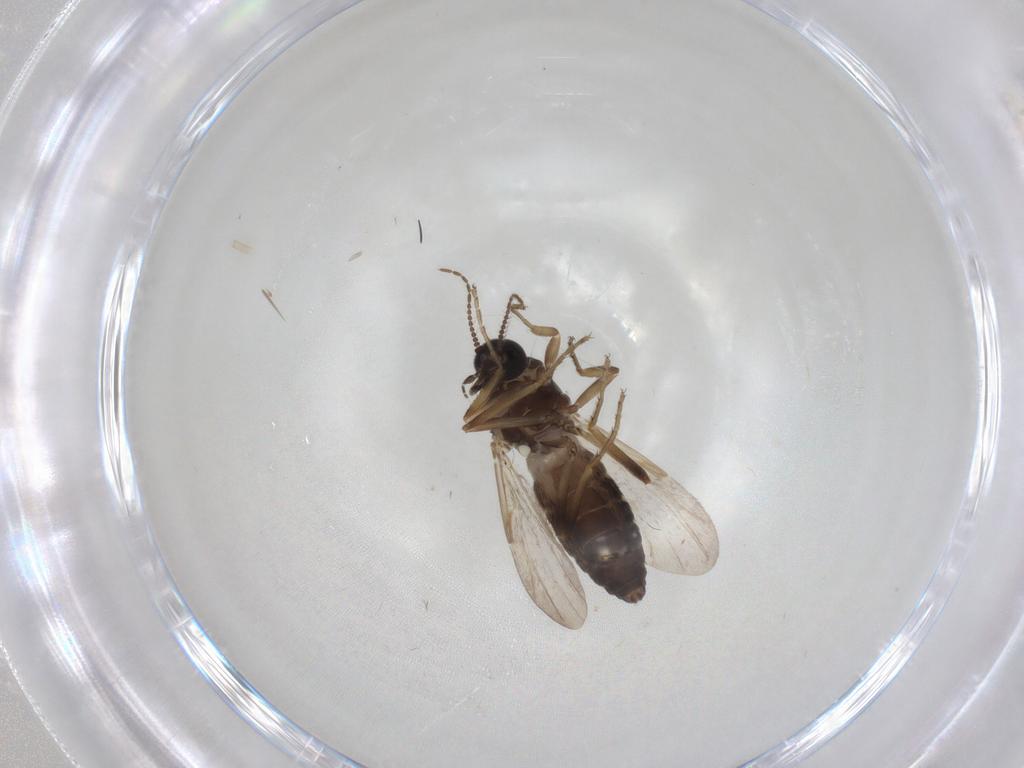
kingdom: Animalia
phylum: Arthropoda
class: Insecta
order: Diptera
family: Ceratopogonidae
